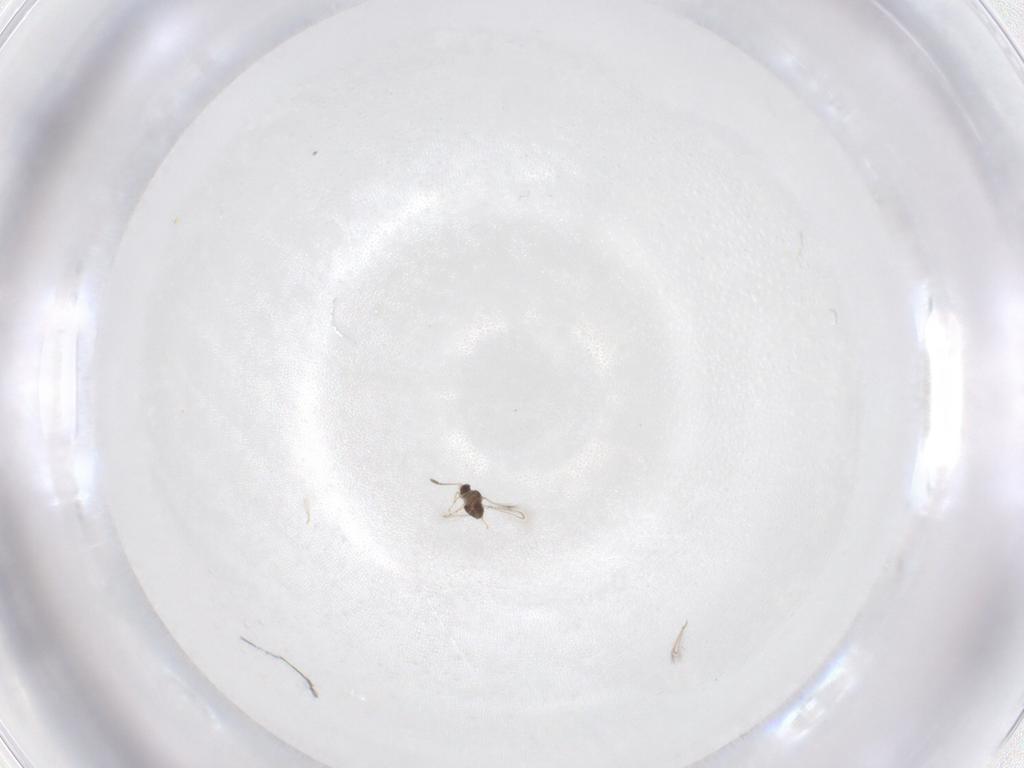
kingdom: Animalia
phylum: Arthropoda
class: Insecta
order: Hymenoptera
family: Mymaridae
